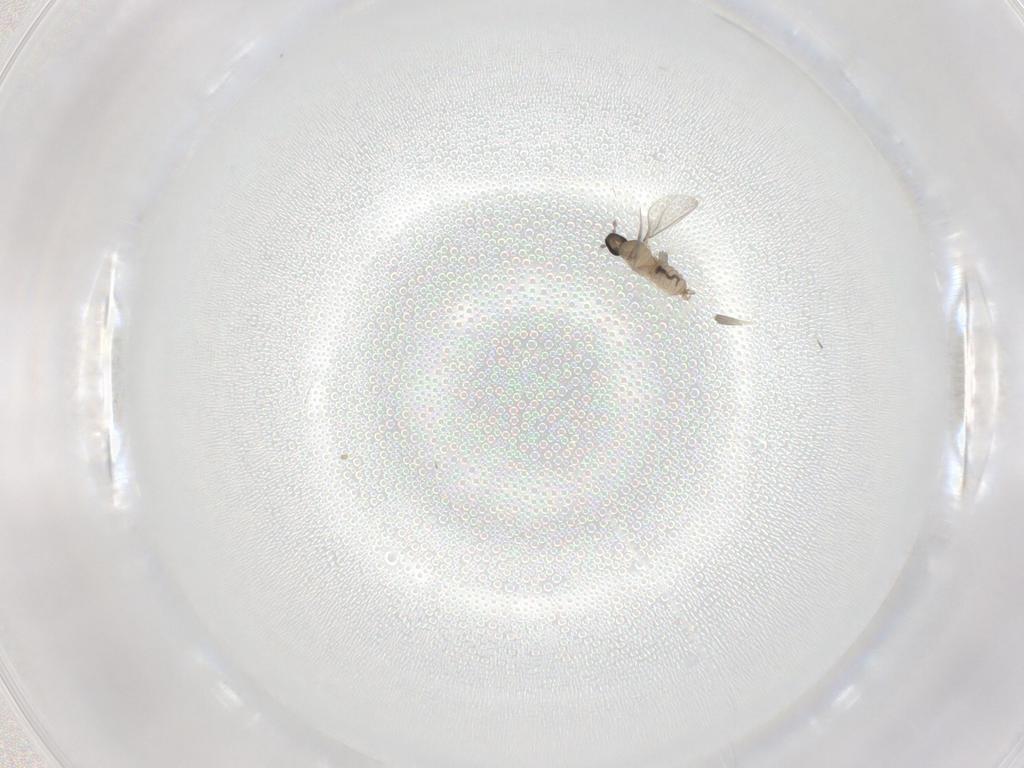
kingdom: Animalia
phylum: Arthropoda
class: Insecta
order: Diptera
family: Cecidomyiidae
